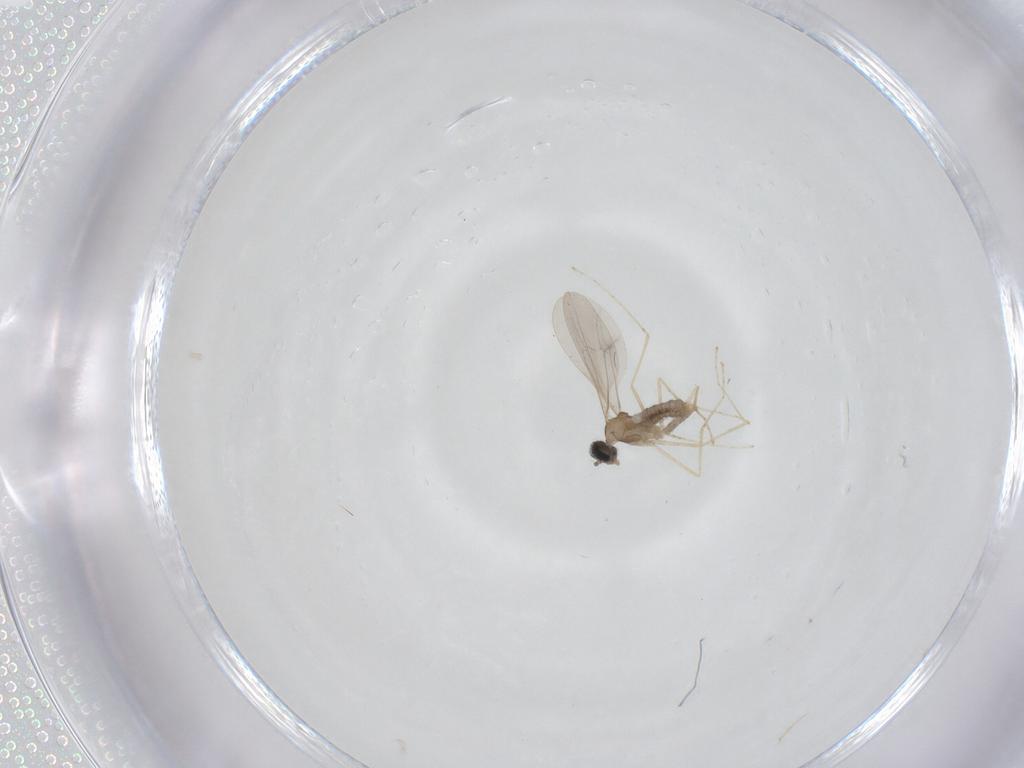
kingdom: Animalia
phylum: Arthropoda
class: Insecta
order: Diptera
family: Cecidomyiidae
